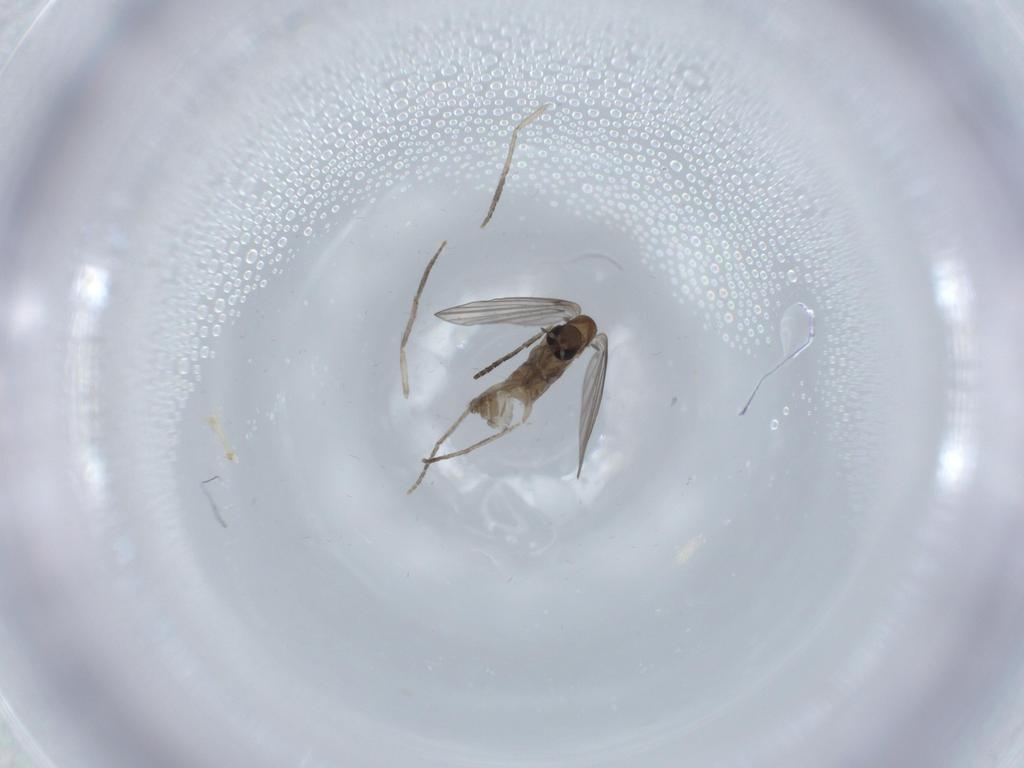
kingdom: Animalia
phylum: Arthropoda
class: Insecta
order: Diptera
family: Psychodidae
